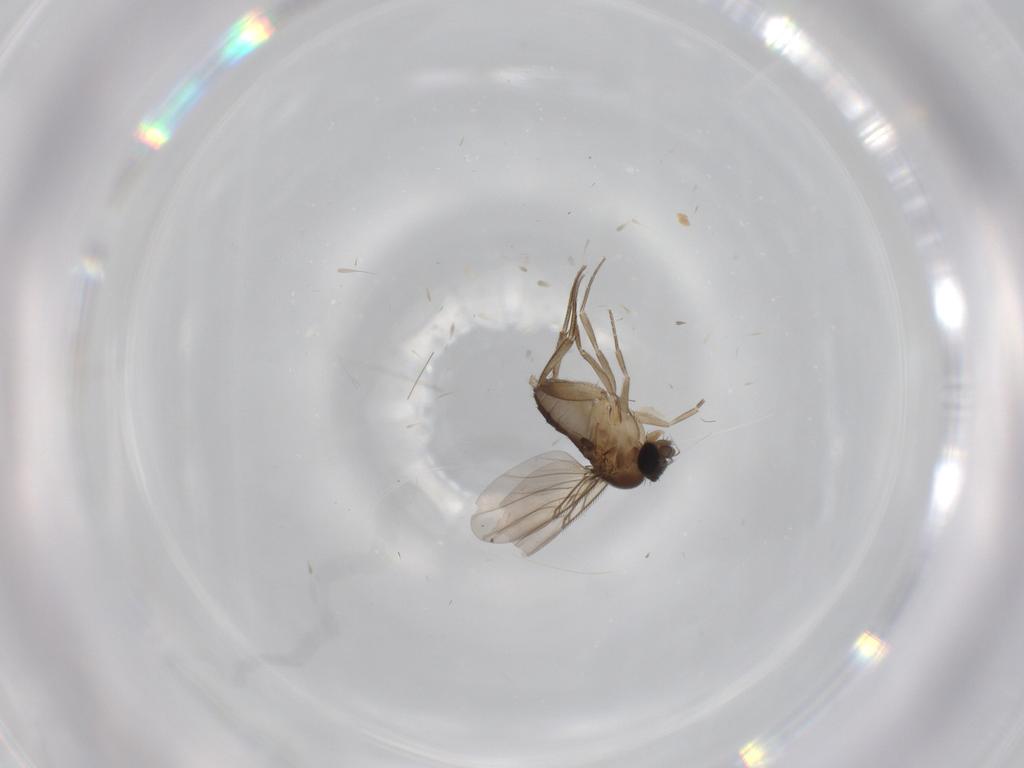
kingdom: Animalia
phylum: Arthropoda
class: Insecta
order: Diptera
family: Phoridae
